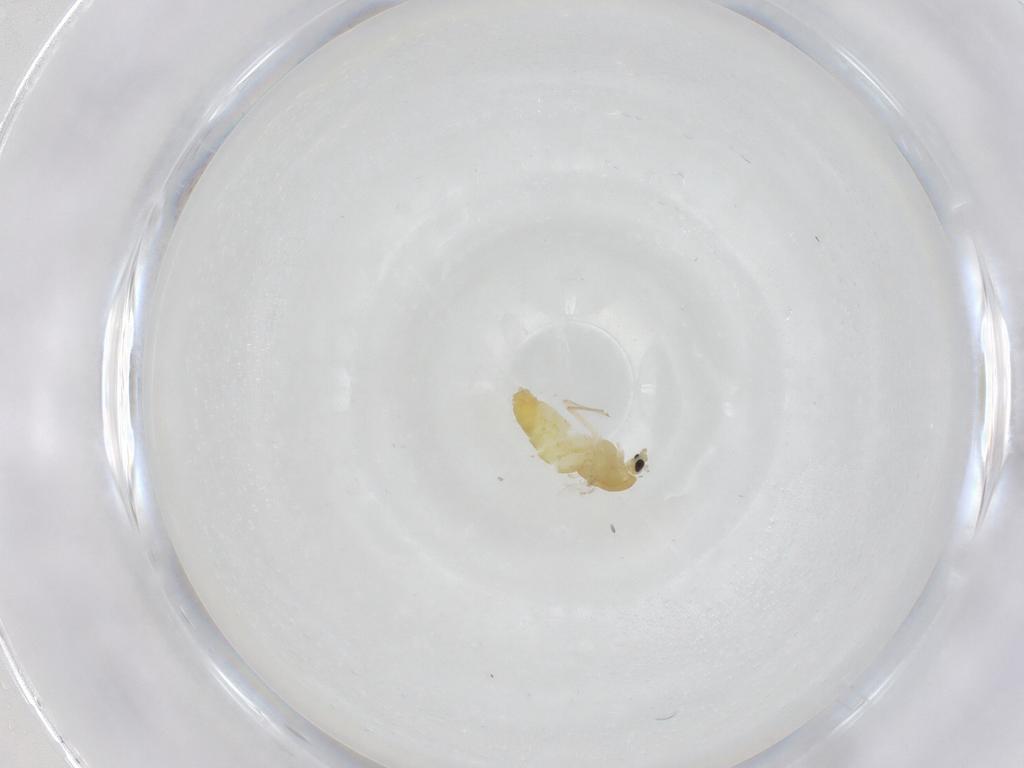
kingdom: Animalia
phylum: Arthropoda
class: Insecta
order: Diptera
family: Chironomidae
